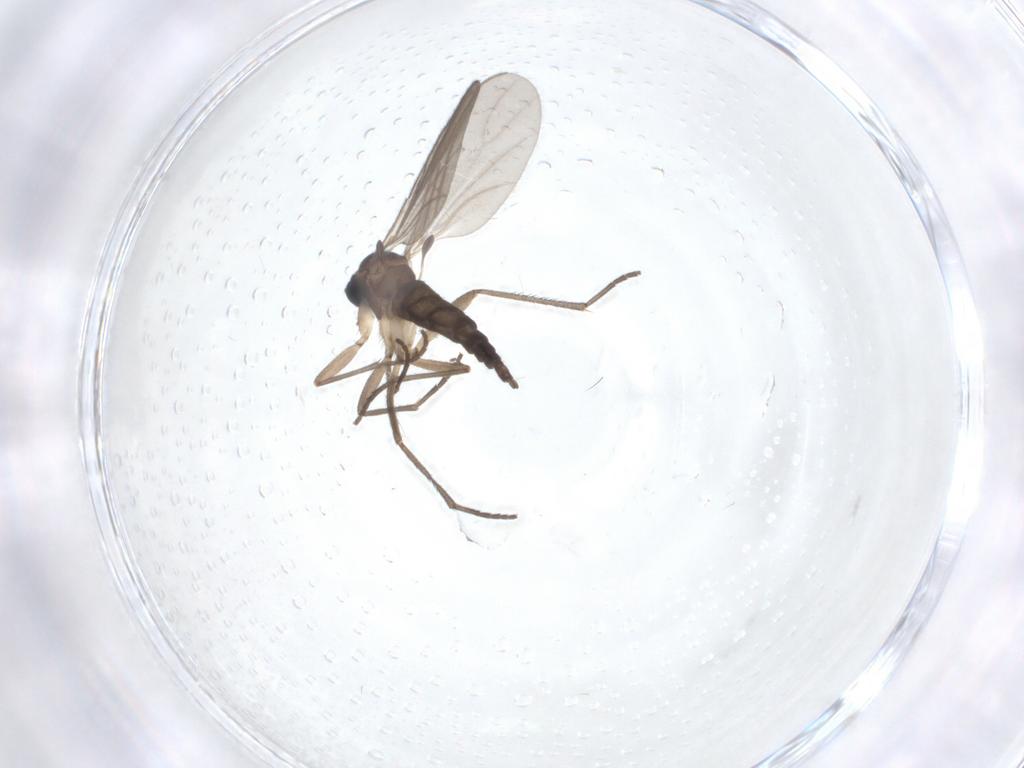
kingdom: Animalia
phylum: Arthropoda
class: Insecta
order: Diptera
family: Sciaridae
